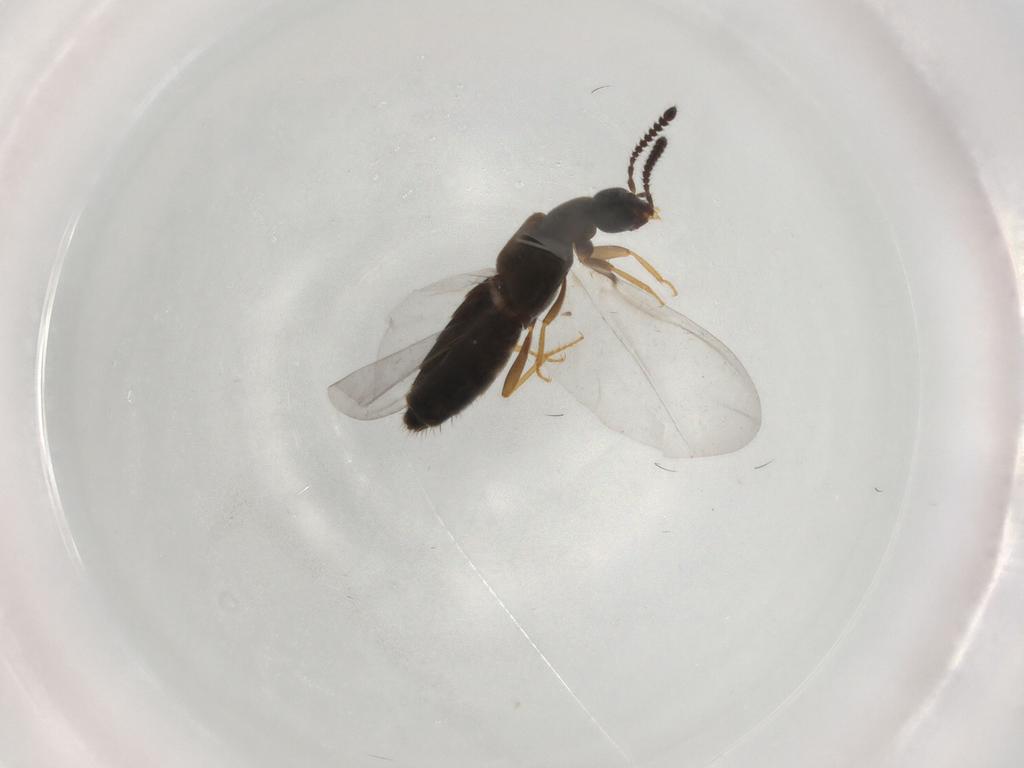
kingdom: Animalia
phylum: Arthropoda
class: Insecta
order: Coleoptera
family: Staphylinidae
